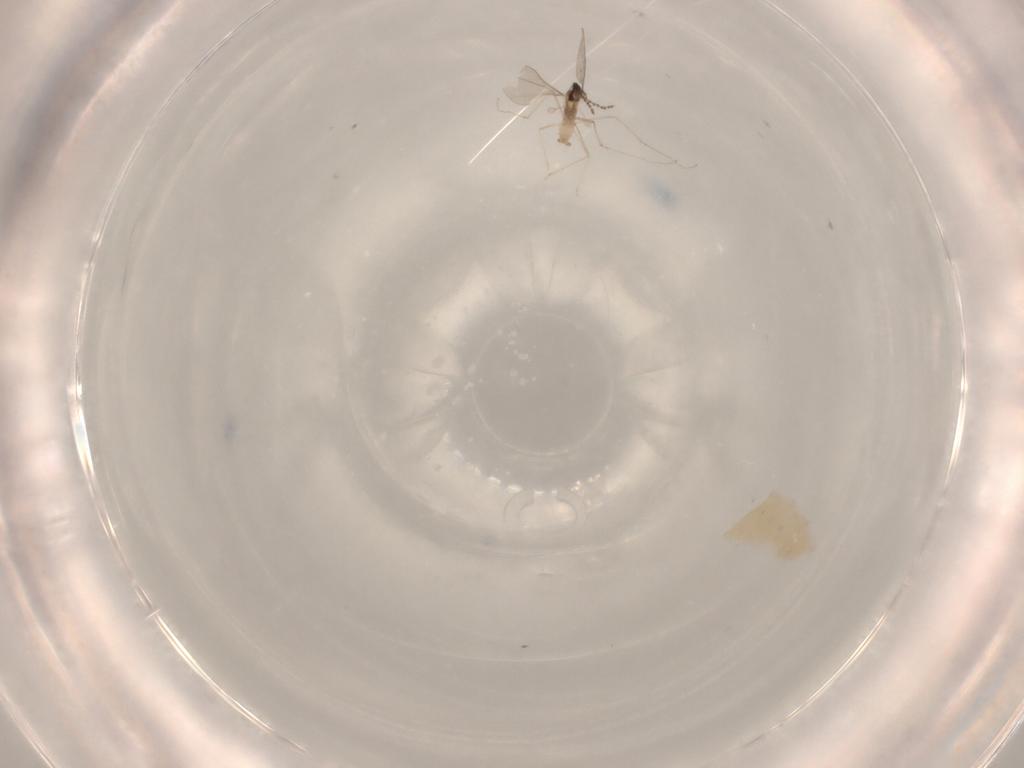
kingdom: Animalia
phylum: Arthropoda
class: Insecta
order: Diptera
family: Cecidomyiidae
